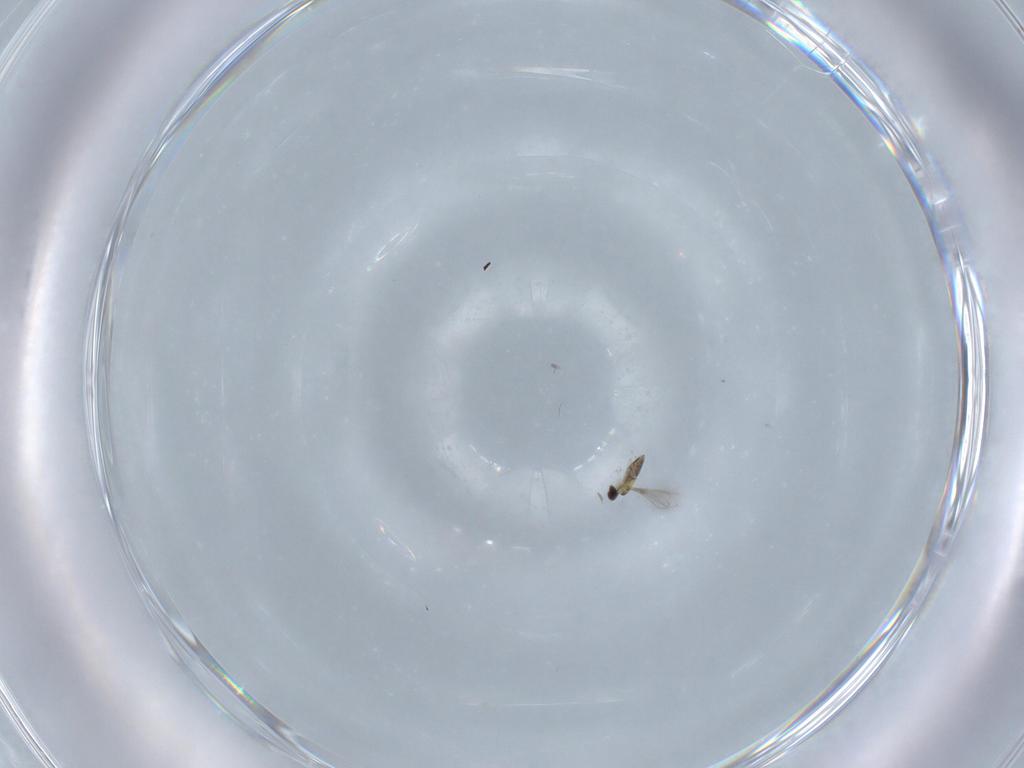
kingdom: Animalia
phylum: Arthropoda
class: Insecta
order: Hymenoptera
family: Mymaridae
